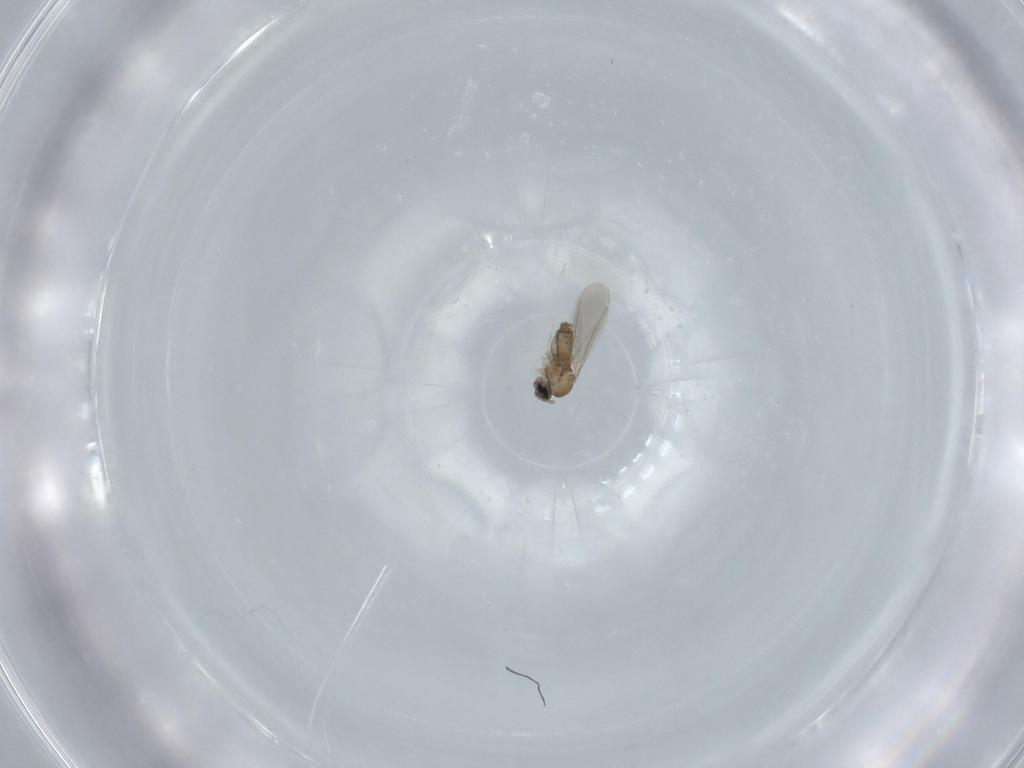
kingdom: Animalia
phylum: Arthropoda
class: Insecta
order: Diptera
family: Cecidomyiidae
